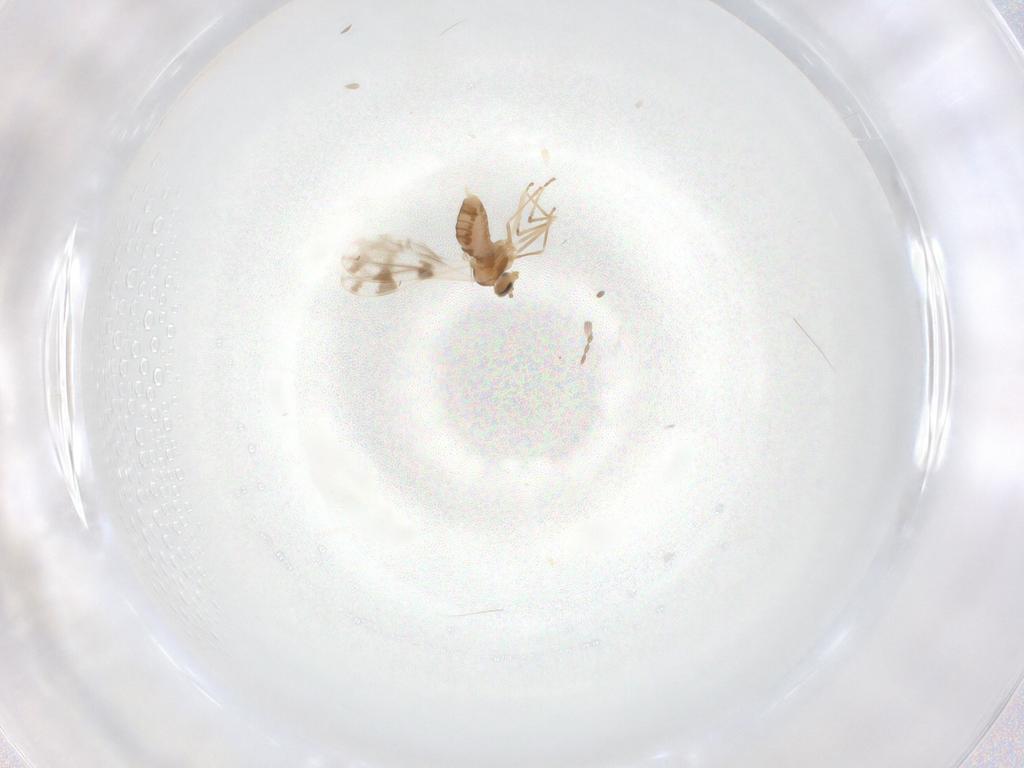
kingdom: Animalia
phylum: Arthropoda
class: Insecta
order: Diptera
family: Cecidomyiidae
